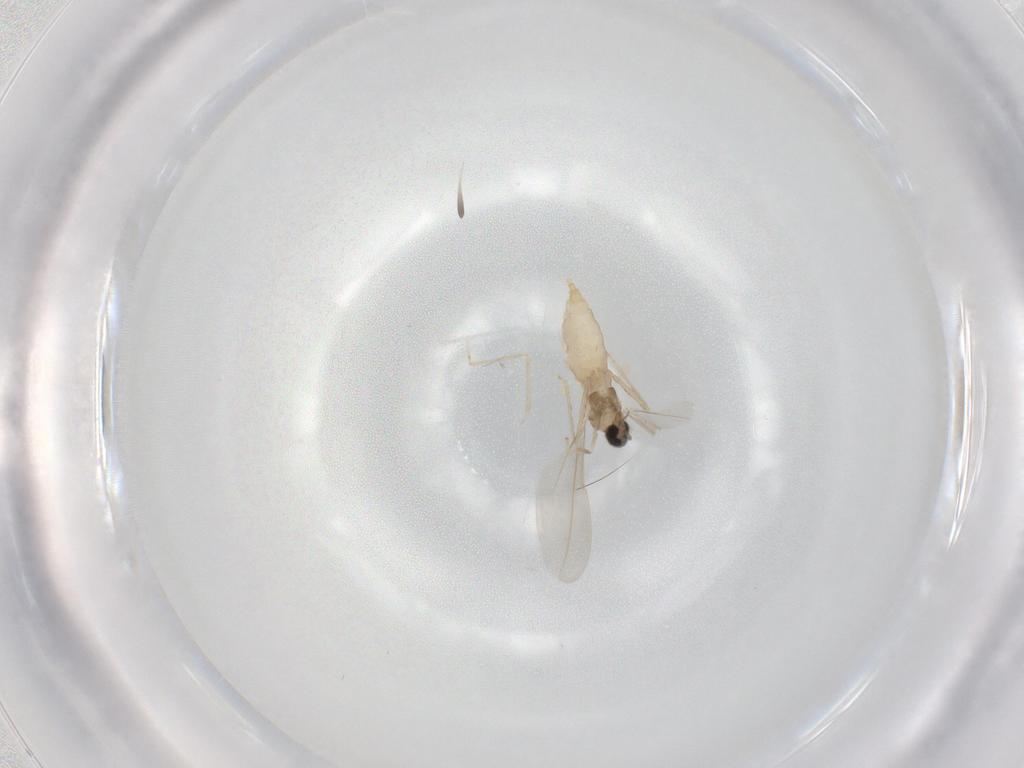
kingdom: Animalia
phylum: Arthropoda
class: Insecta
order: Diptera
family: Cecidomyiidae
